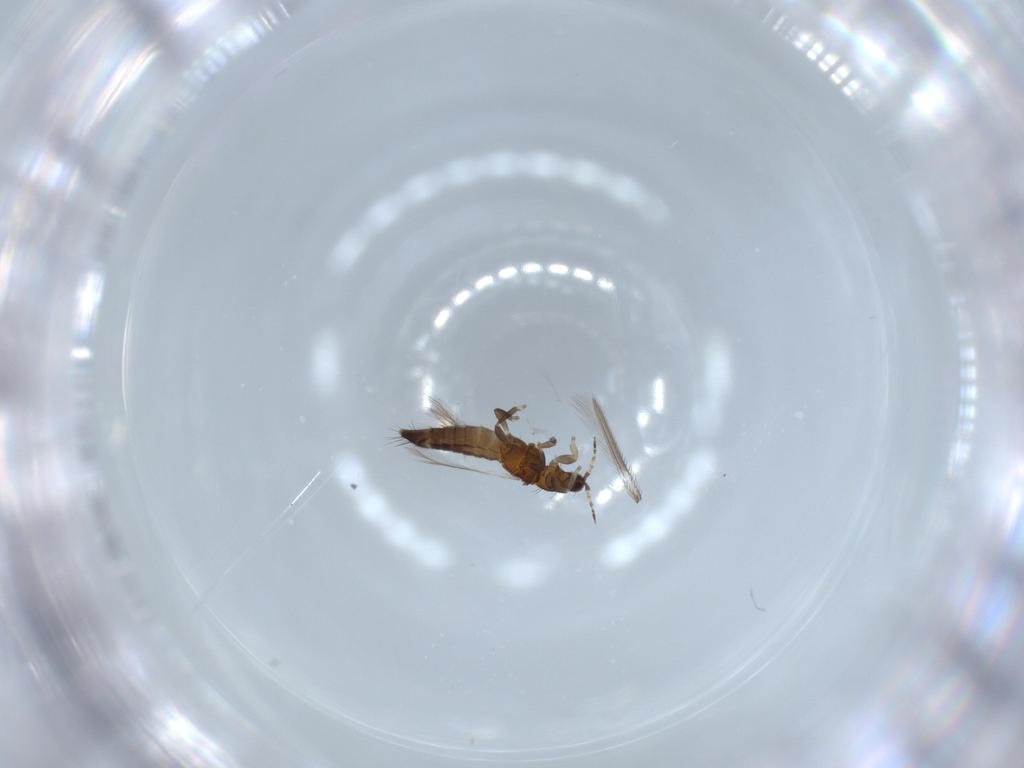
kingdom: Animalia
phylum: Arthropoda
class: Insecta
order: Thysanoptera
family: Thripidae
